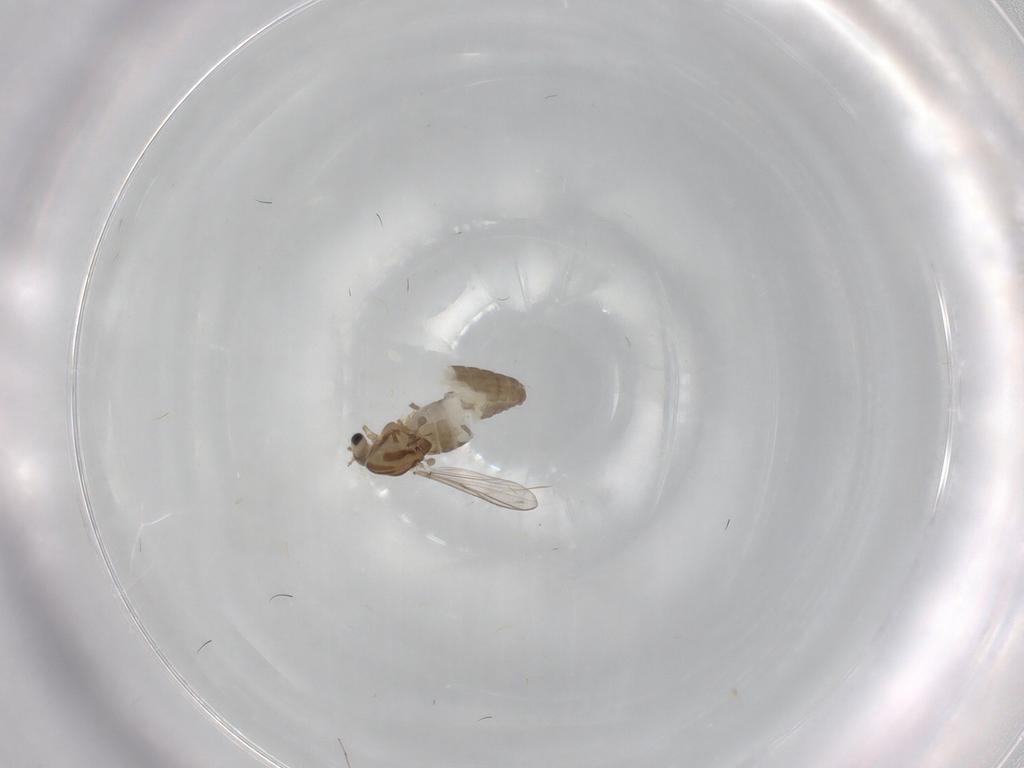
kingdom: Animalia
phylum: Arthropoda
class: Insecta
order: Diptera
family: Chironomidae
